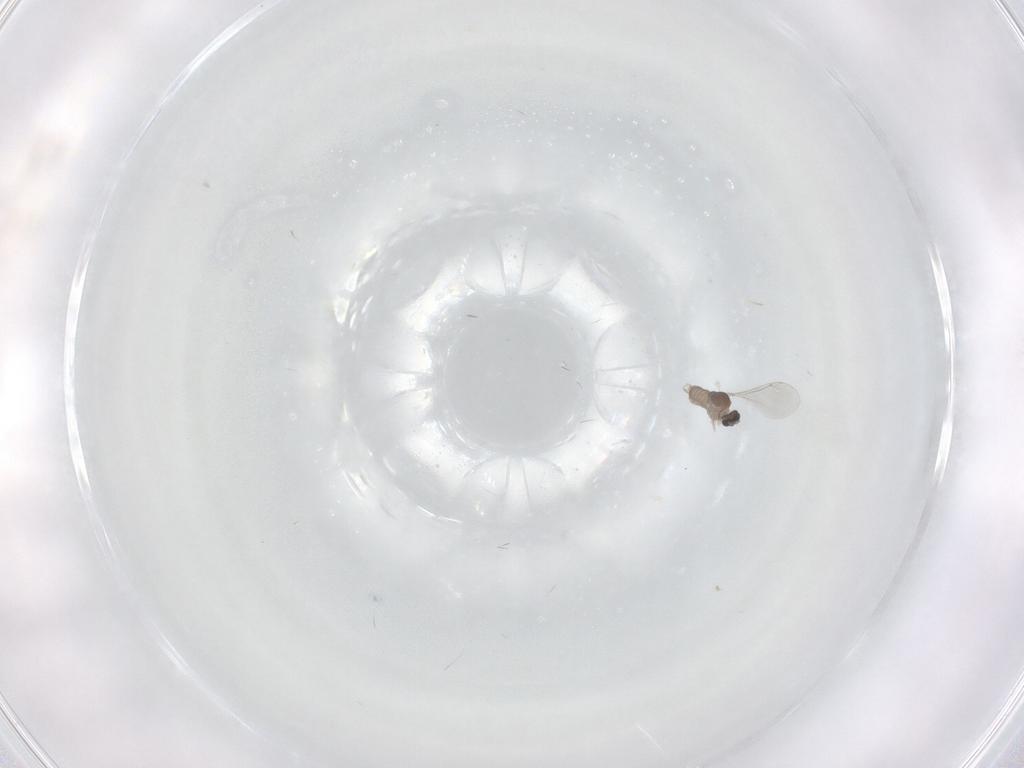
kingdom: Animalia
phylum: Arthropoda
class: Insecta
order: Diptera
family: Cecidomyiidae
